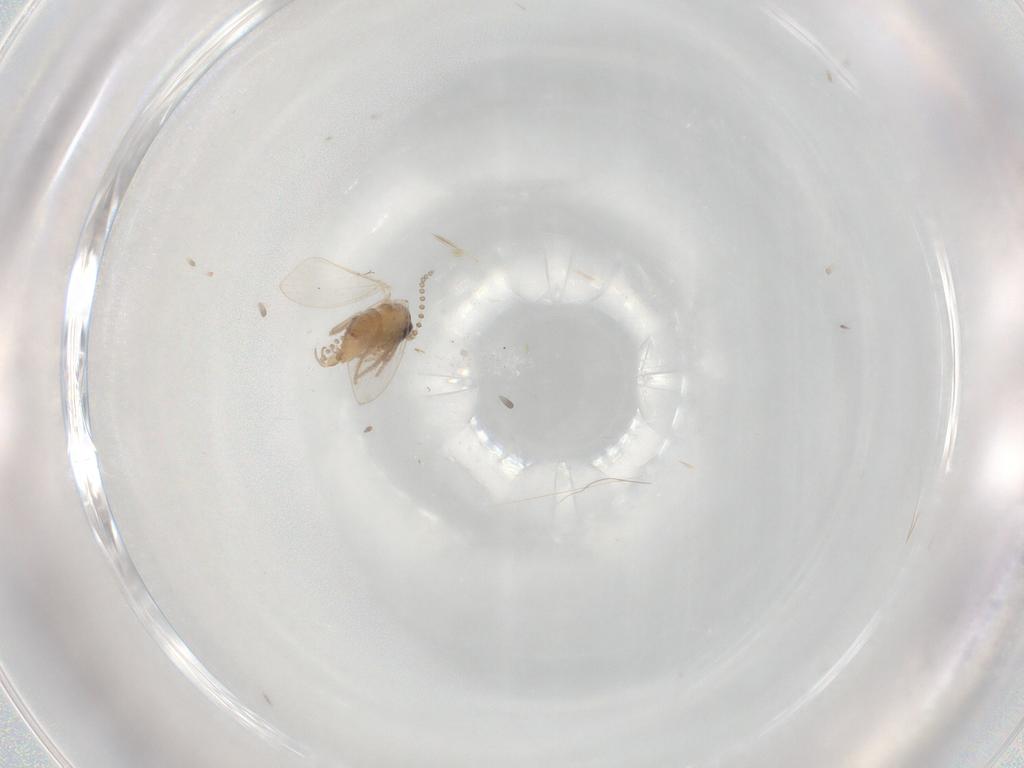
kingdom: Animalia
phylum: Arthropoda
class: Insecta
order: Diptera
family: Psychodidae
